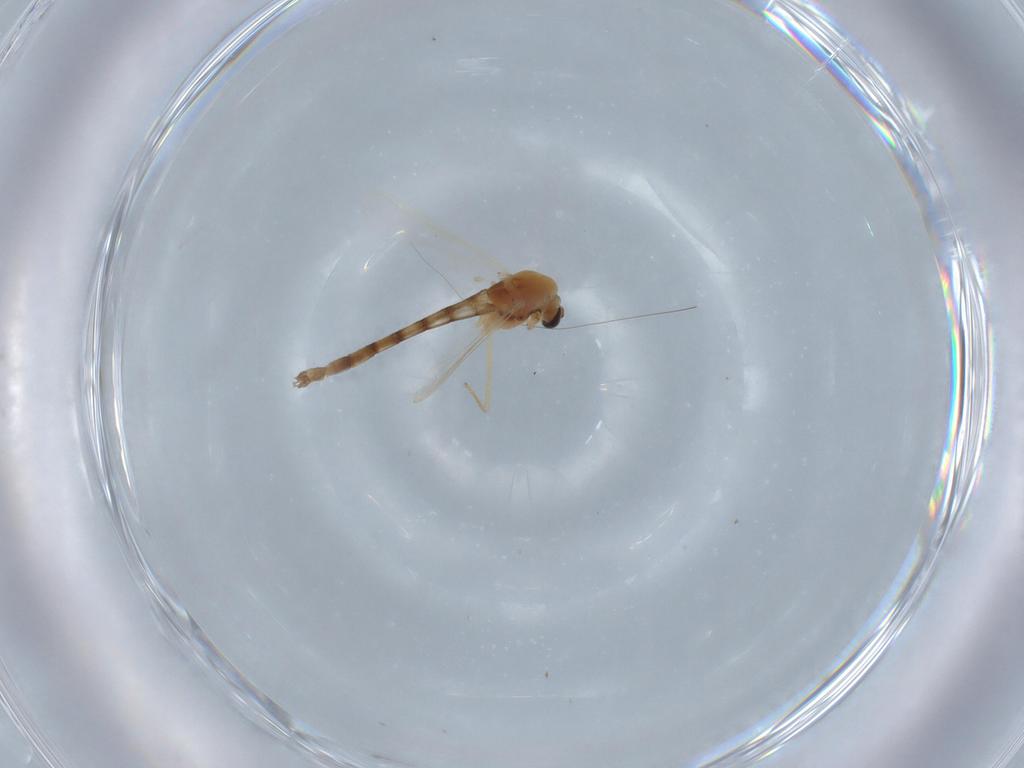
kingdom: Animalia
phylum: Arthropoda
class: Insecta
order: Diptera
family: Chironomidae
